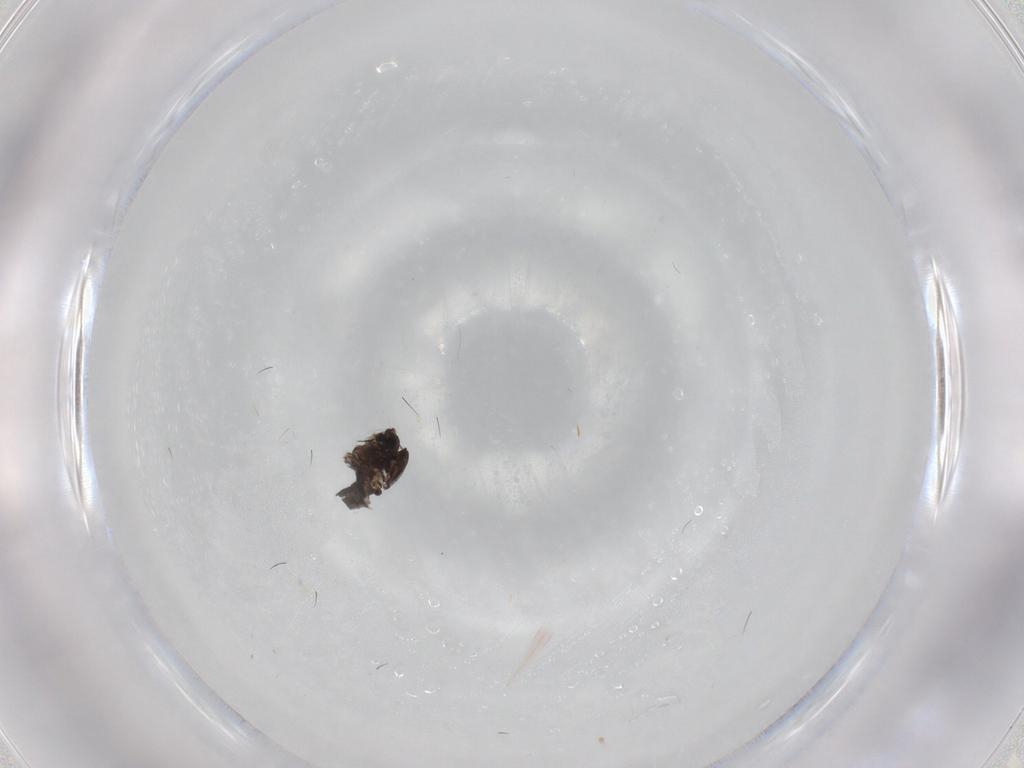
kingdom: Animalia
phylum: Arthropoda
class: Insecta
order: Diptera
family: Chironomidae
